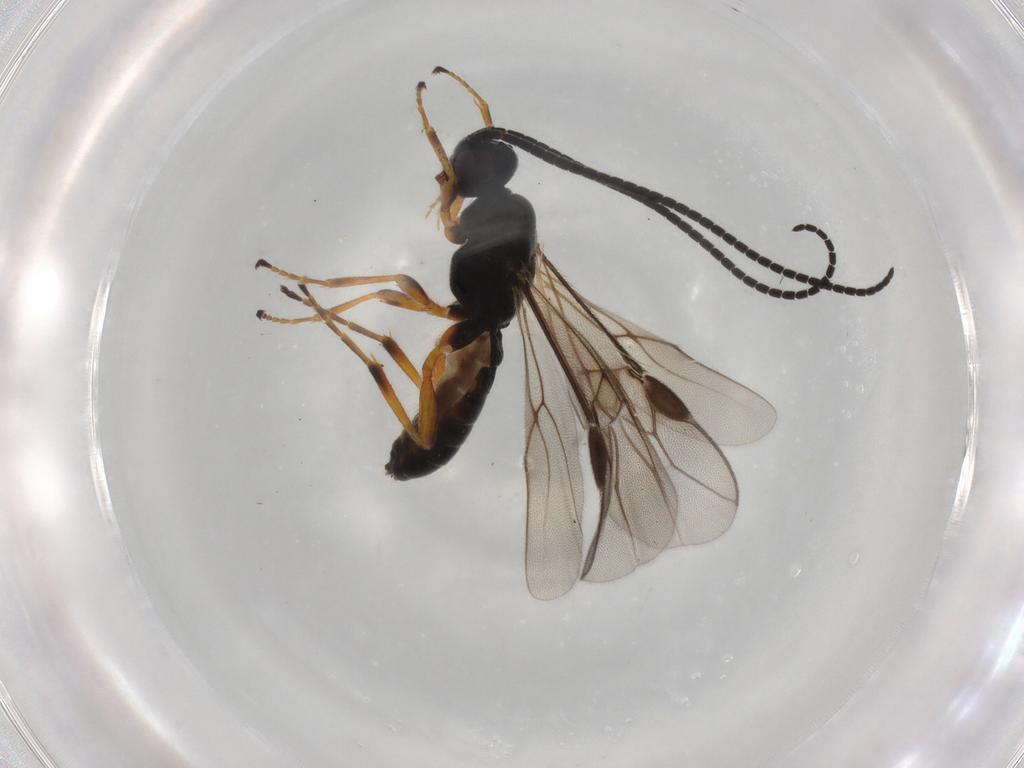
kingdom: Animalia
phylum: Arthropoda
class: Insecta
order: Hymenoptera
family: Braconidae
